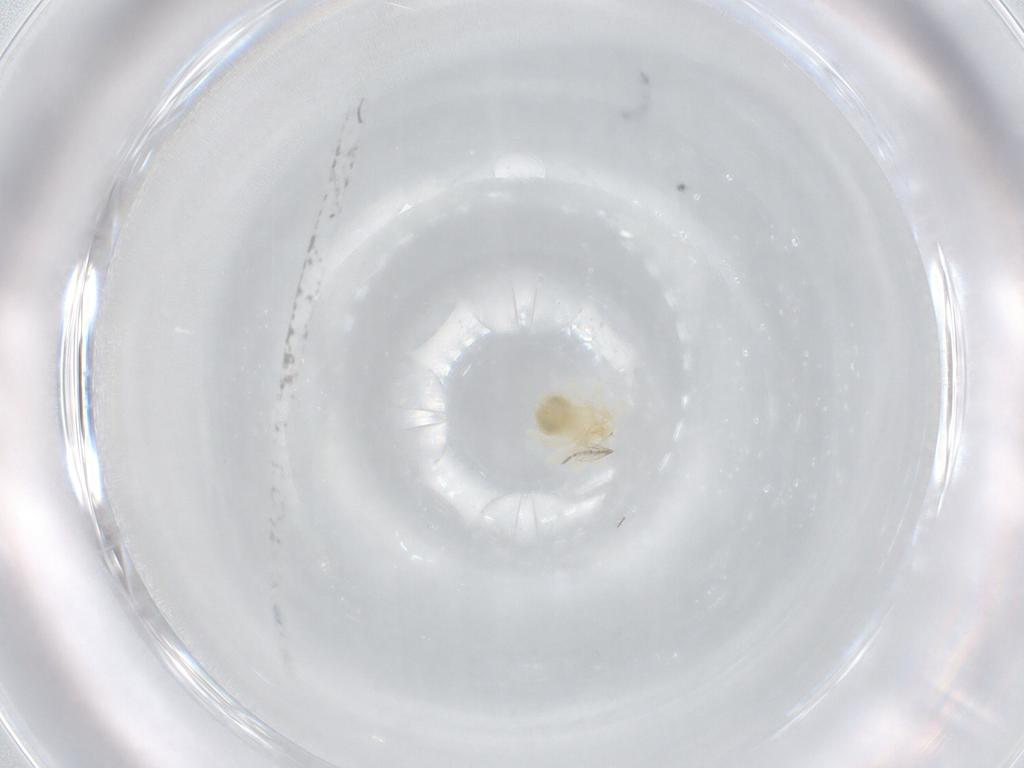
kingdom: Animalia
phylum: Arthropoda
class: Arachnida
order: Trombidiformes
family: Anystidae
